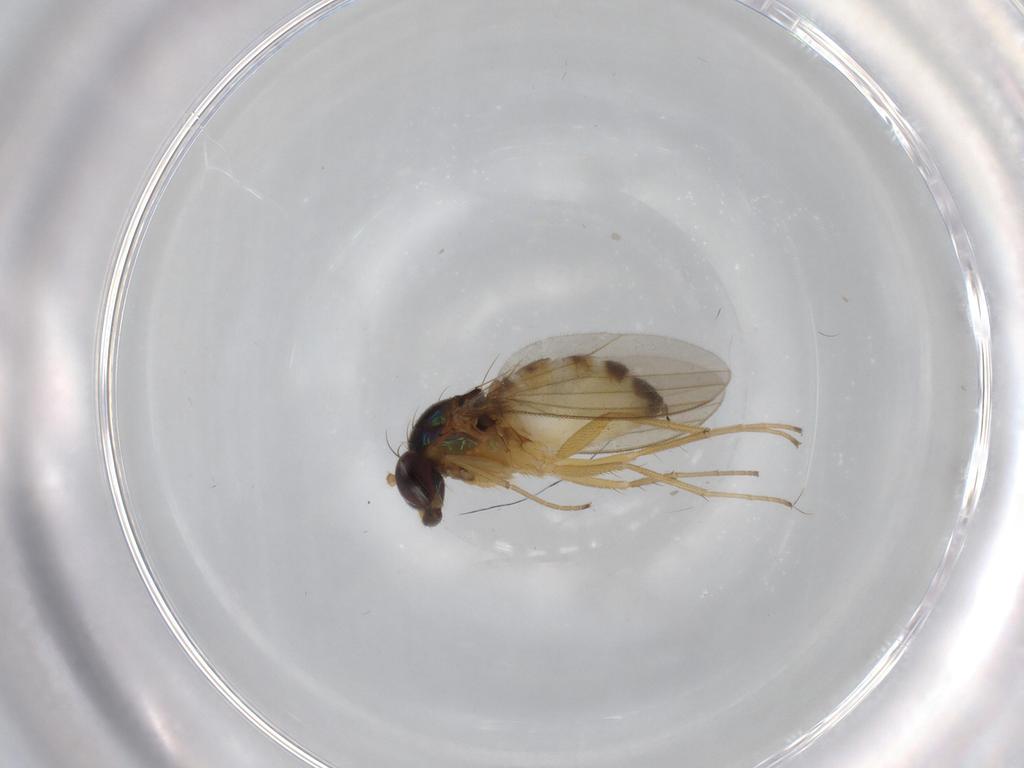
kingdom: Animalia
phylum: Arthropoda
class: Insecta
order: Diptera
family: Dolichopodidae
